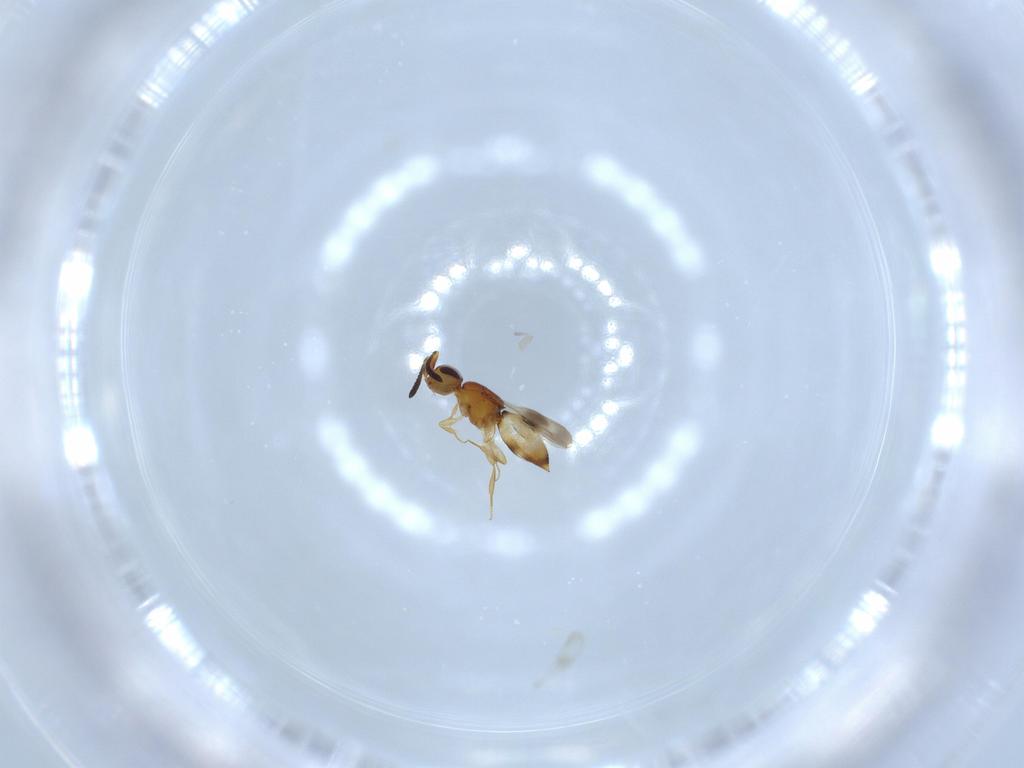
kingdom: Animalia
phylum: Arthropoda
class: Insecta
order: Hymenoptera
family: Ceraphronidae
